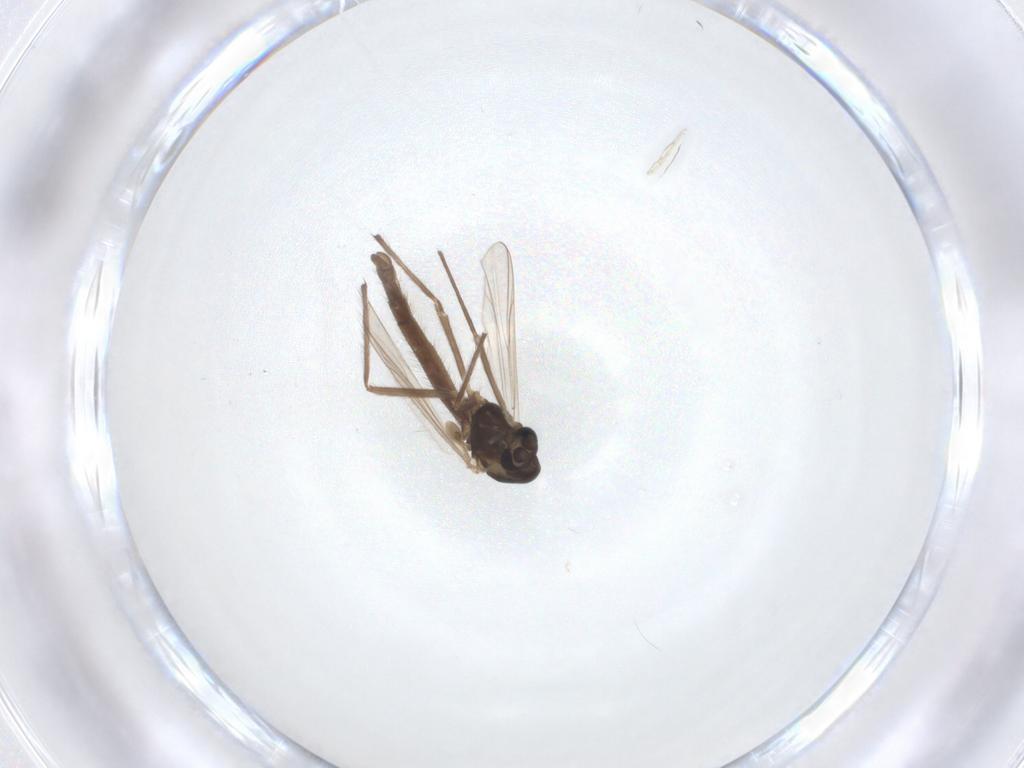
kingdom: Animalia
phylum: Arthropoda
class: Insecta
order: Diptera
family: Chironomidae
